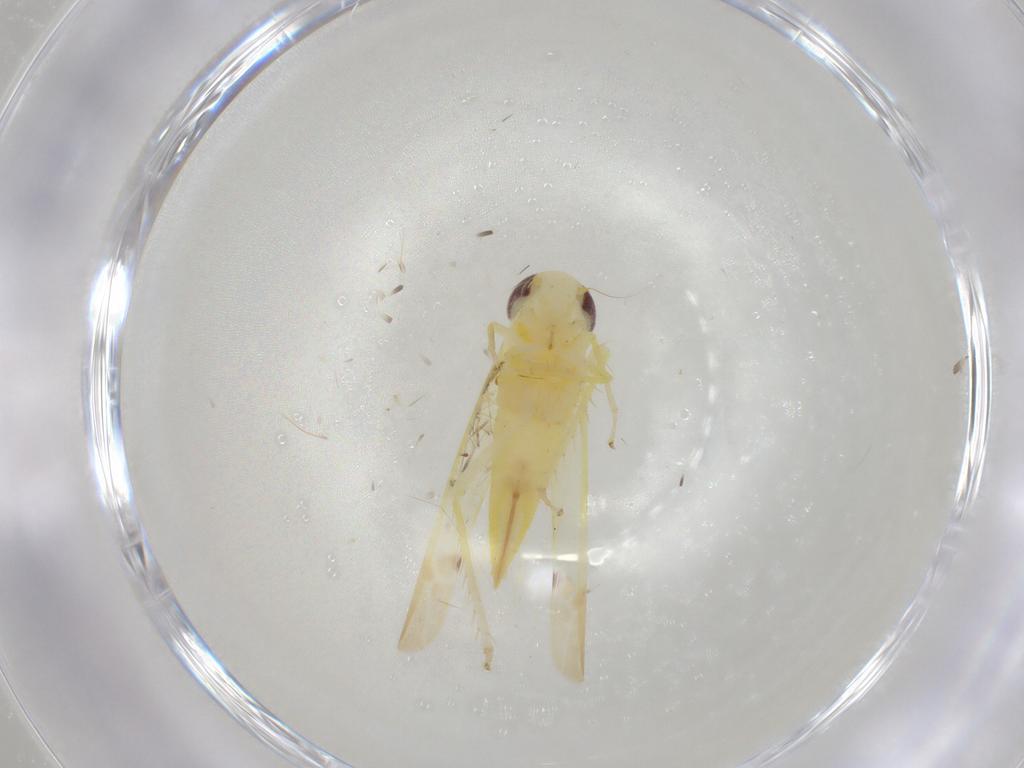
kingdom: Animalia
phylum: Arthropoda
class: Insecta
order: Hemiptera
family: Cicadellidae
